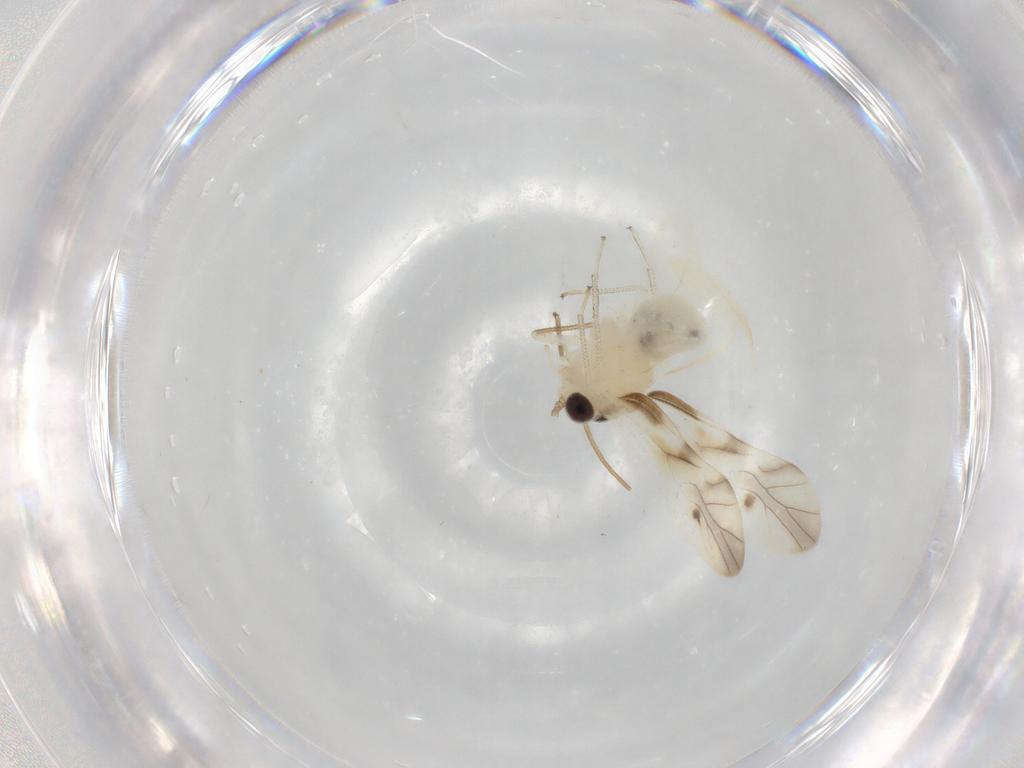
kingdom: Animalia
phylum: Arthropoda
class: Insecta
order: Psocodea
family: Caeciliusidae
